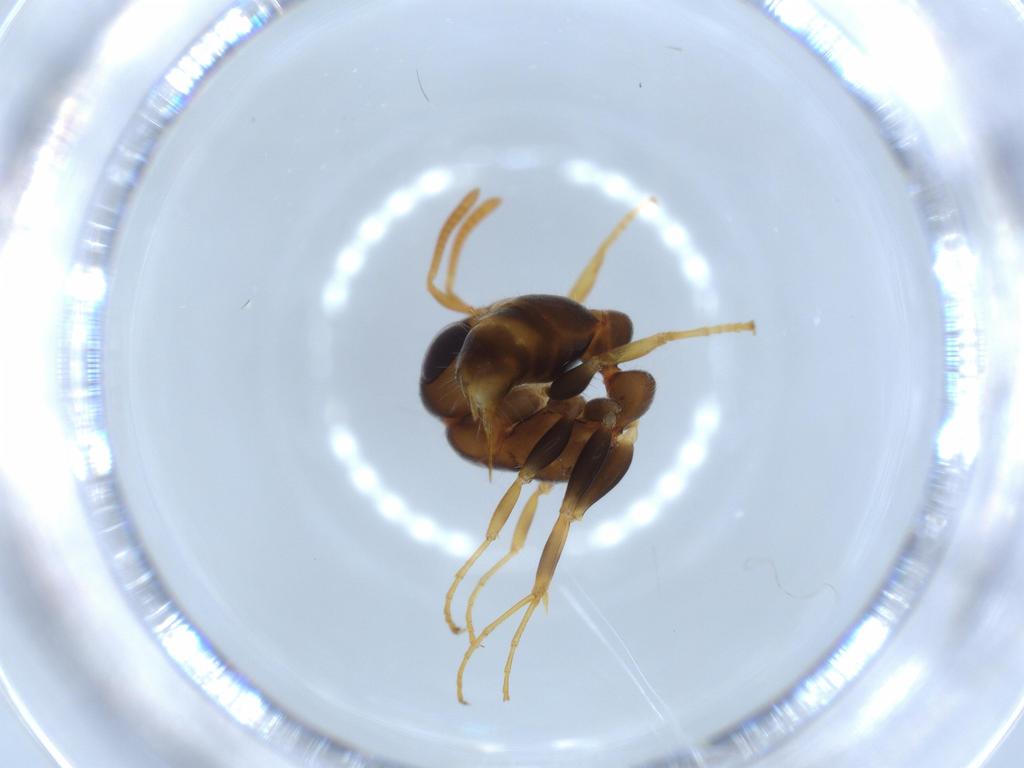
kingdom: Animalia
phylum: Arthropoda
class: Insecta
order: Hymenoptera
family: Formicidae
